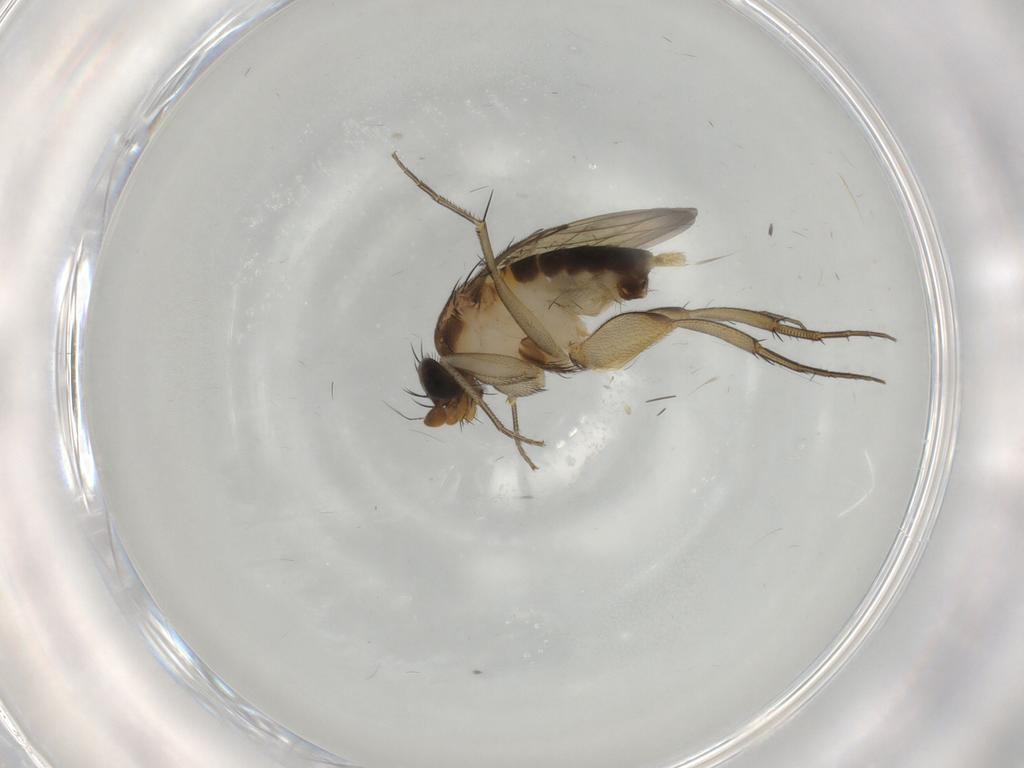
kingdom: Animalia
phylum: Arthropoda
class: Insecta
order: Diptera
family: Phoridae
